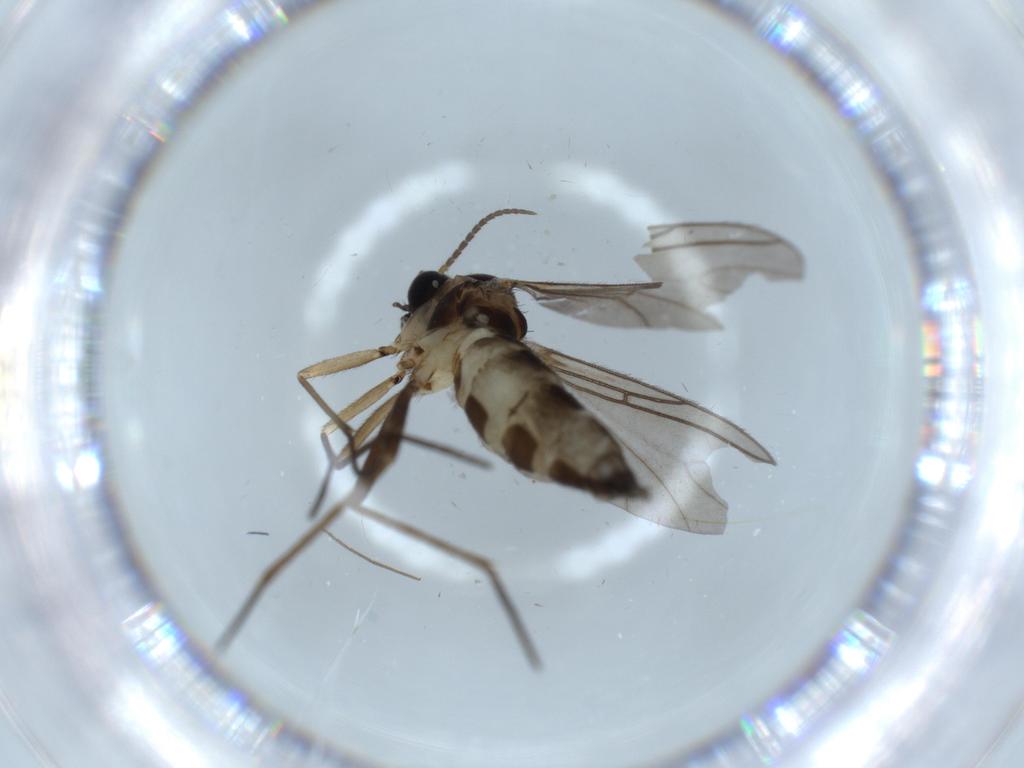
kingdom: Animalia
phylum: Arthropoda
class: Insecta
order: Diptera
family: Sciaridae
